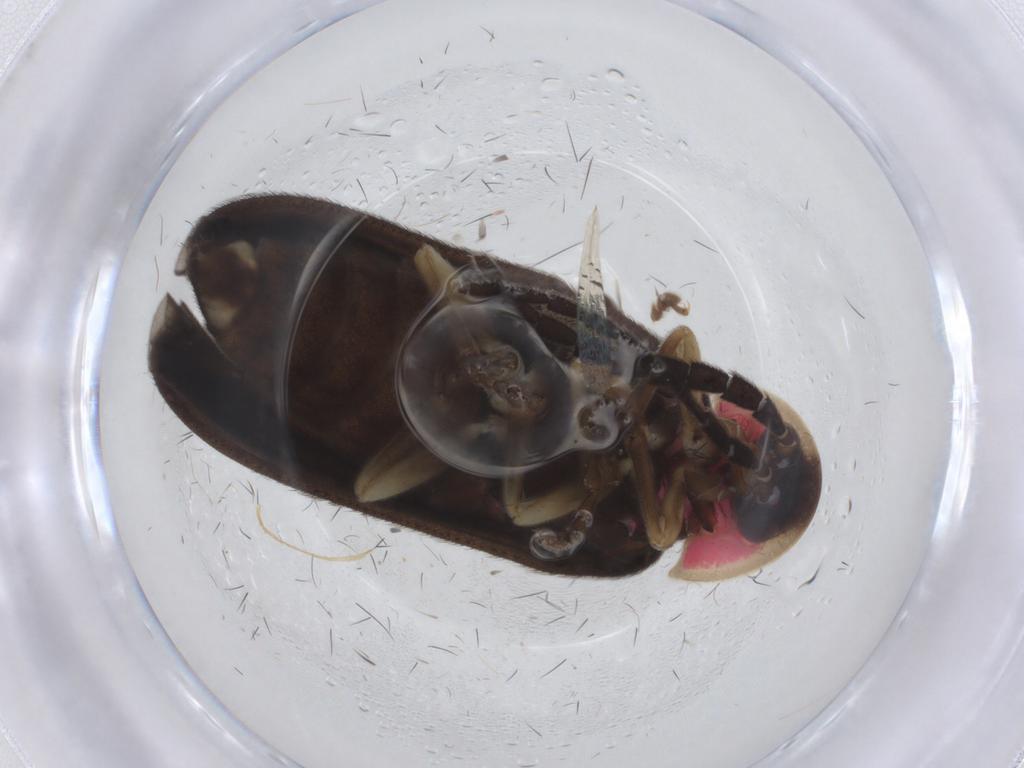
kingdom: Animalia
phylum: Arthropoda
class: Insecta
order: Coleoptera
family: Lampyridae
